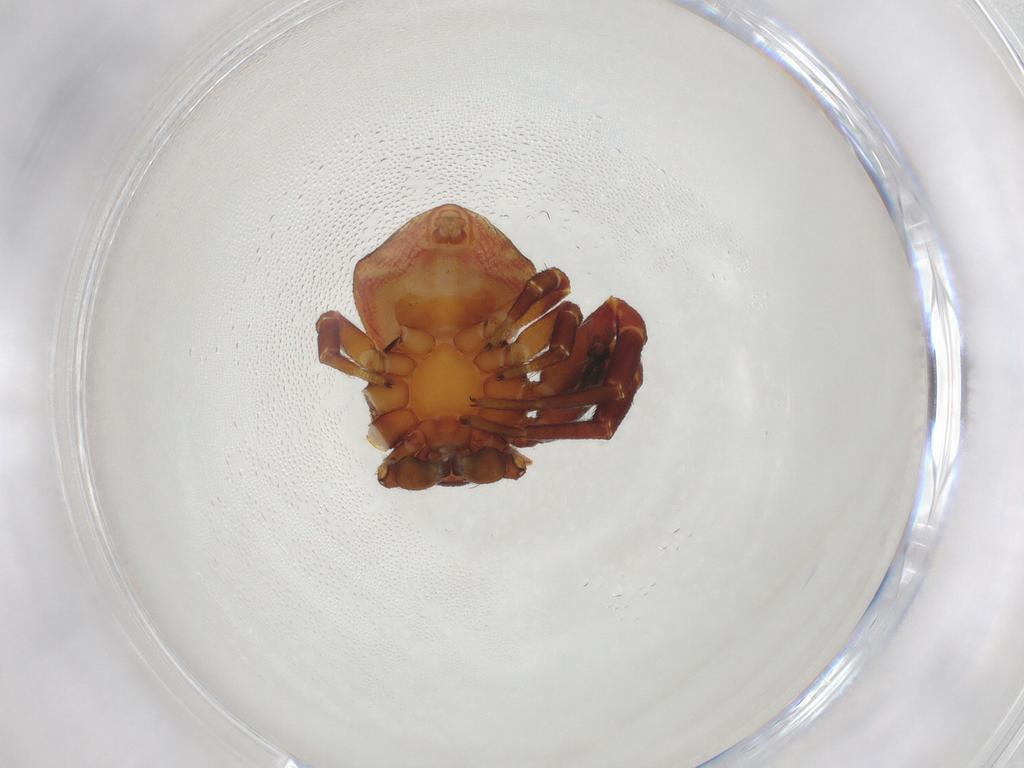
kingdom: Animalia
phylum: Arthropoda
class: Arachnida
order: Araneae
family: Thomisidae
